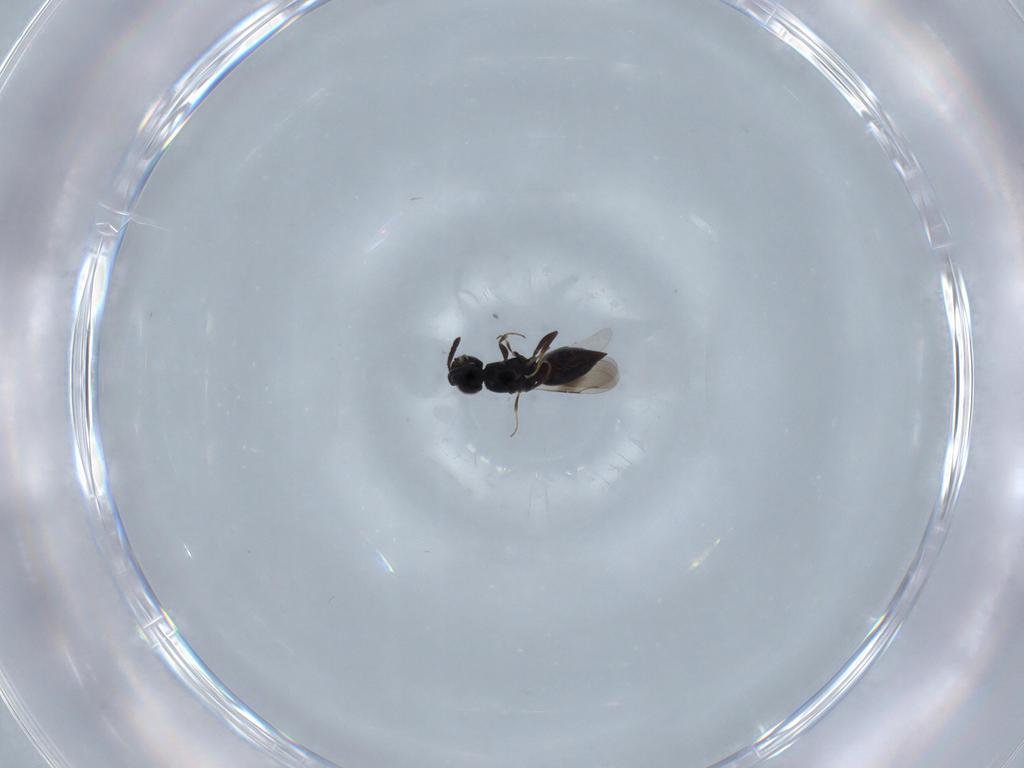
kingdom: Animalia
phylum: Arthropoda
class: Insecta
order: Hymenoptera
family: Ceraphronidae
